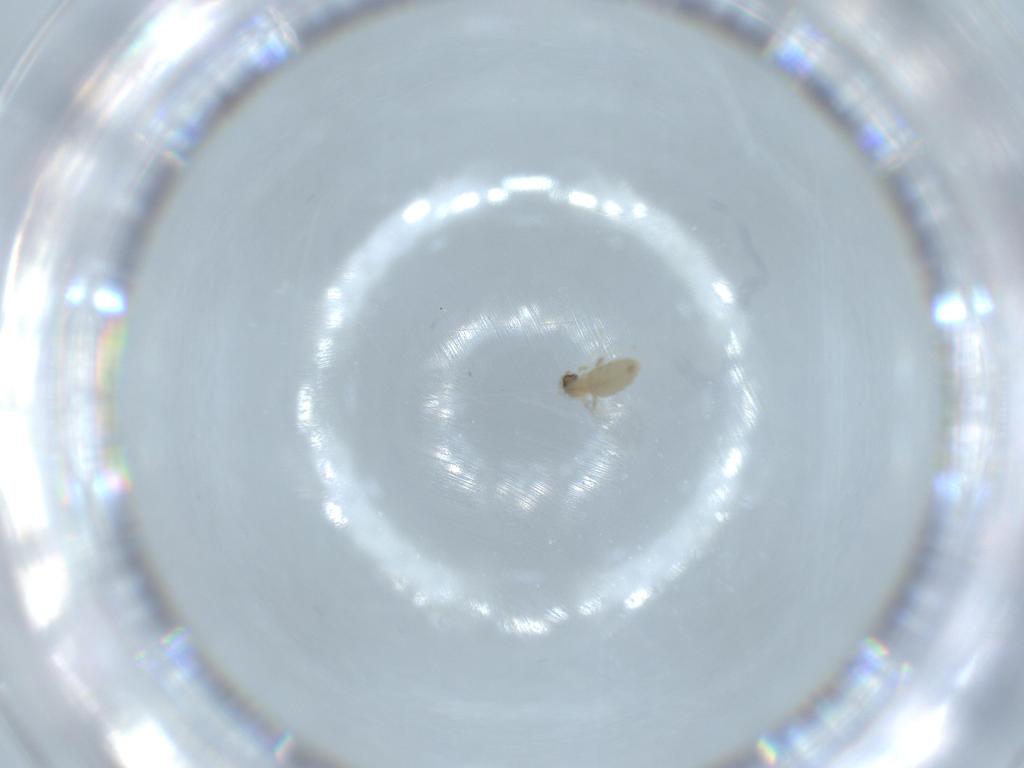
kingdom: Animalia
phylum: Arthropoda
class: Insecta
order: Diptera
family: Cecidomyiidae
